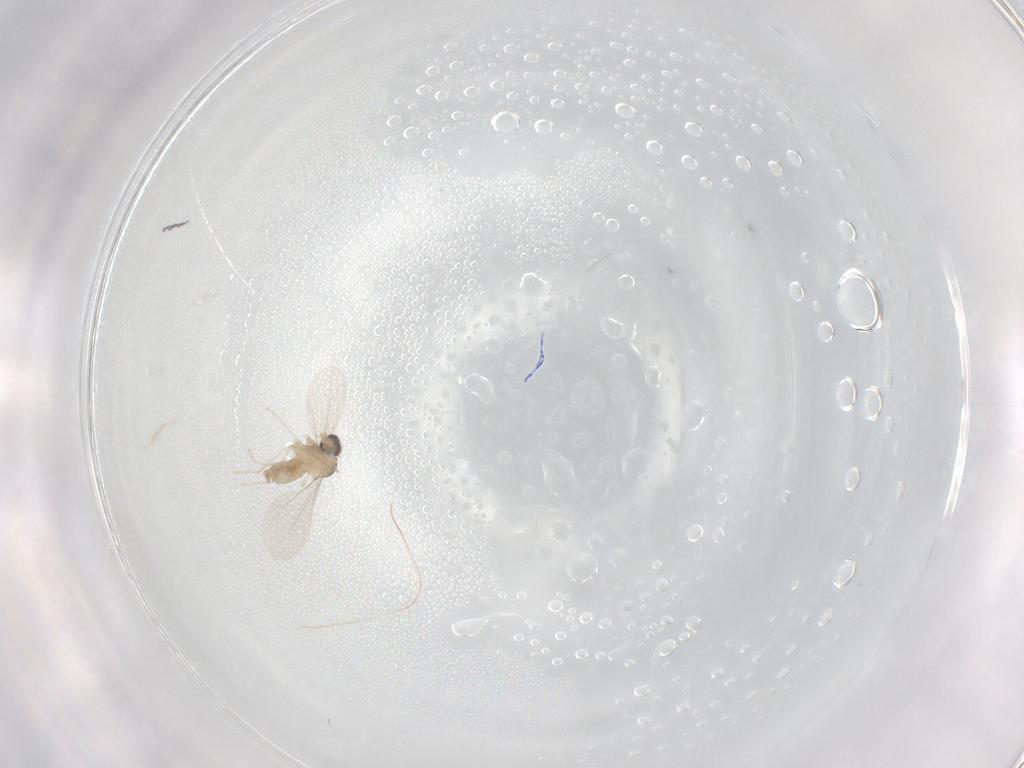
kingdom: Animalia
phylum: Arthropoda
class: Insecta
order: Diptera
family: Cecidomyiidae
